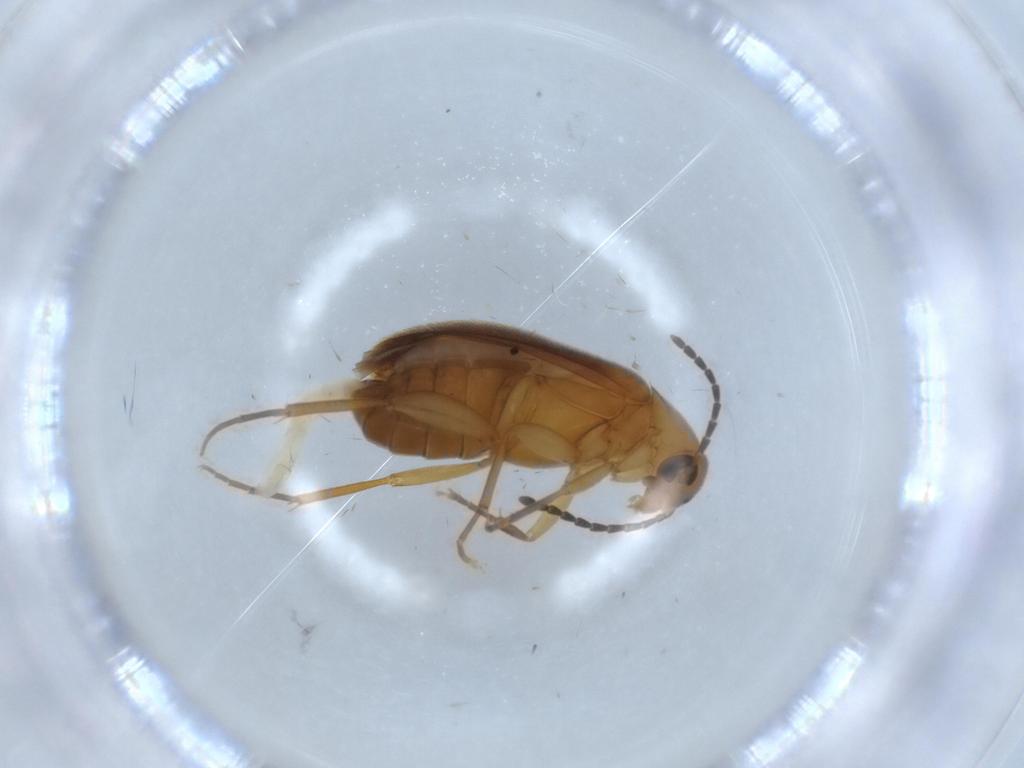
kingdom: Animalia
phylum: Arthropoda
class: Insecta
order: Coleoptera
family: Scraptiidae
